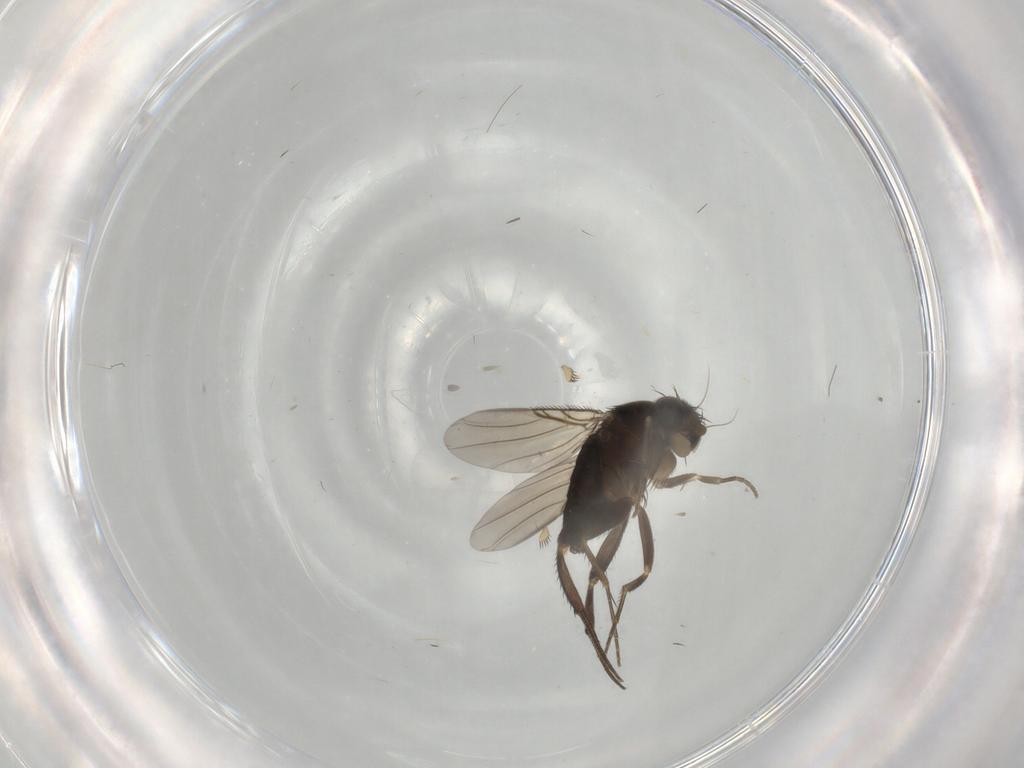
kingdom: Animalia
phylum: Arthropoda
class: Insecta
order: Diptera
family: Phoridae
